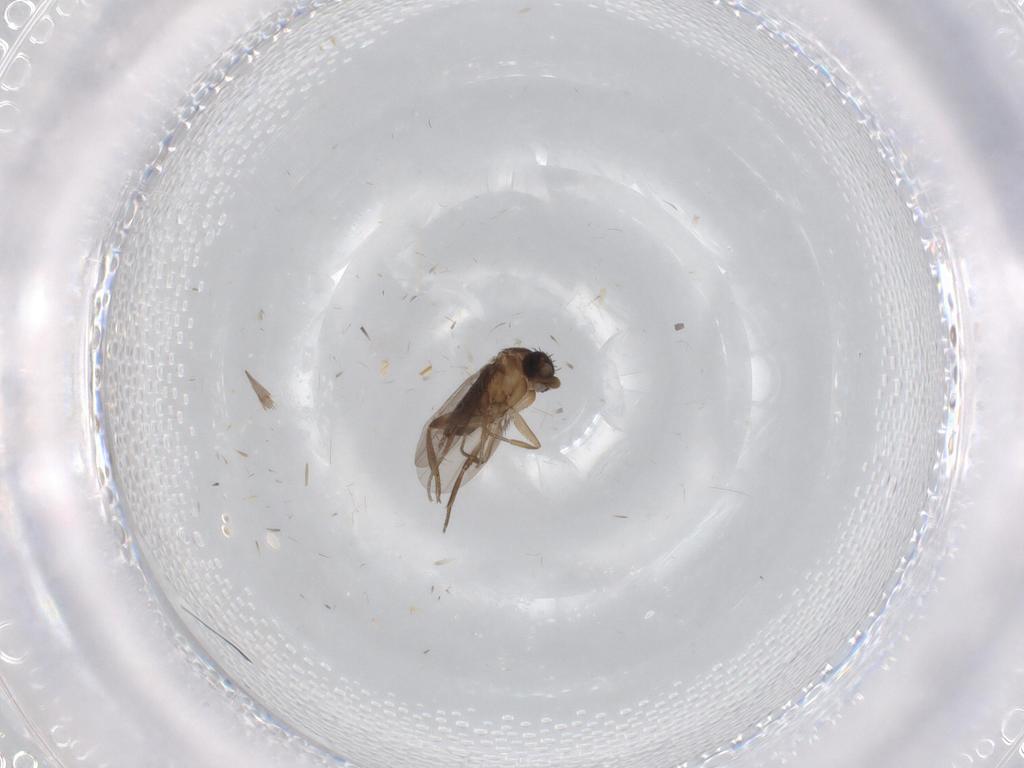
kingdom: Animalia
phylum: Arthropoda
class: Insecta
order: Diptera
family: Phoridae
